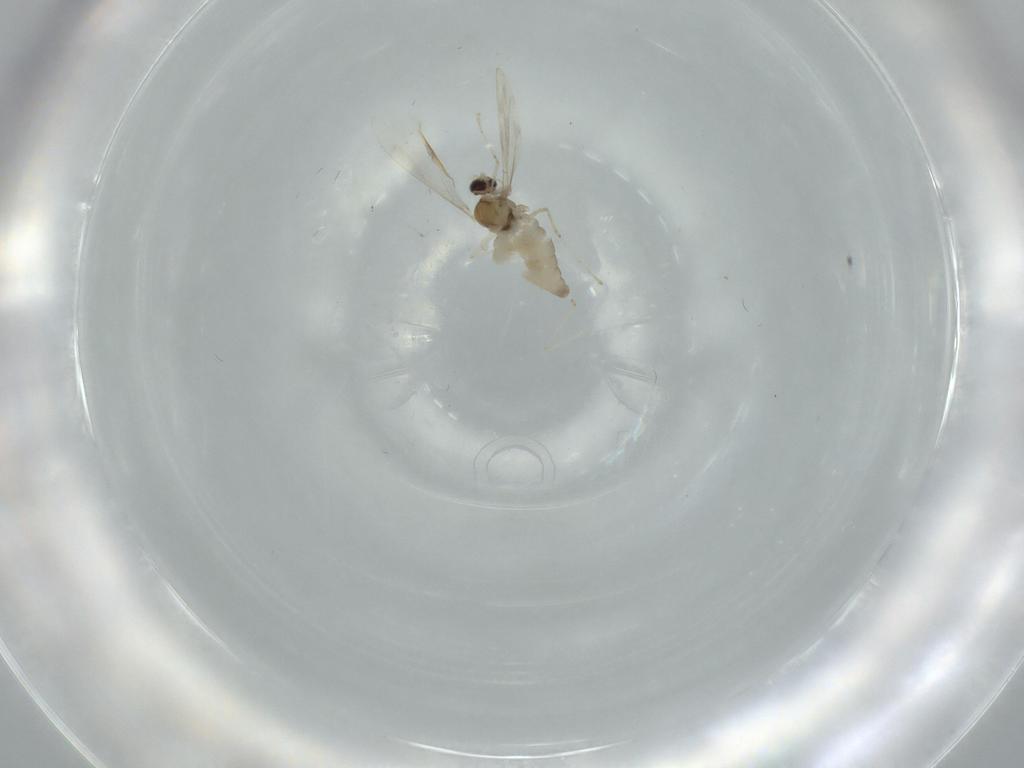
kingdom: Animalia
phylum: Arthropoda
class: Insecta
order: Diptera
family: Cecidomyiidae
